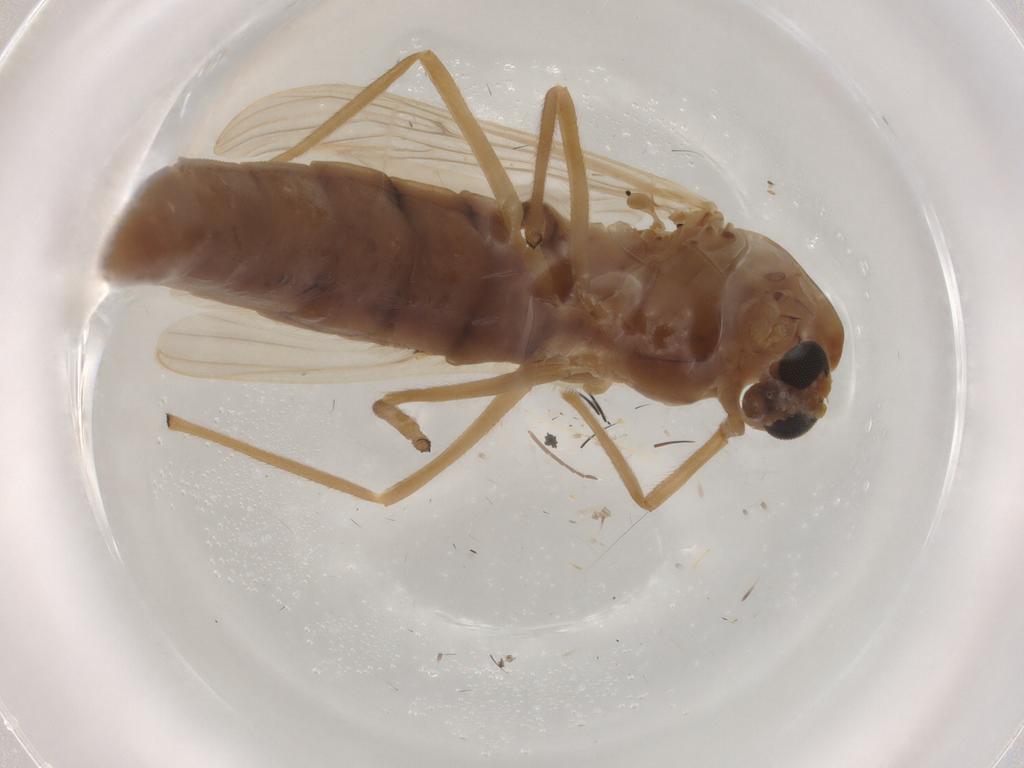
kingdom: Animalia
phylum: Arthropoda
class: Insecta
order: Diptera
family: Chironomidae
